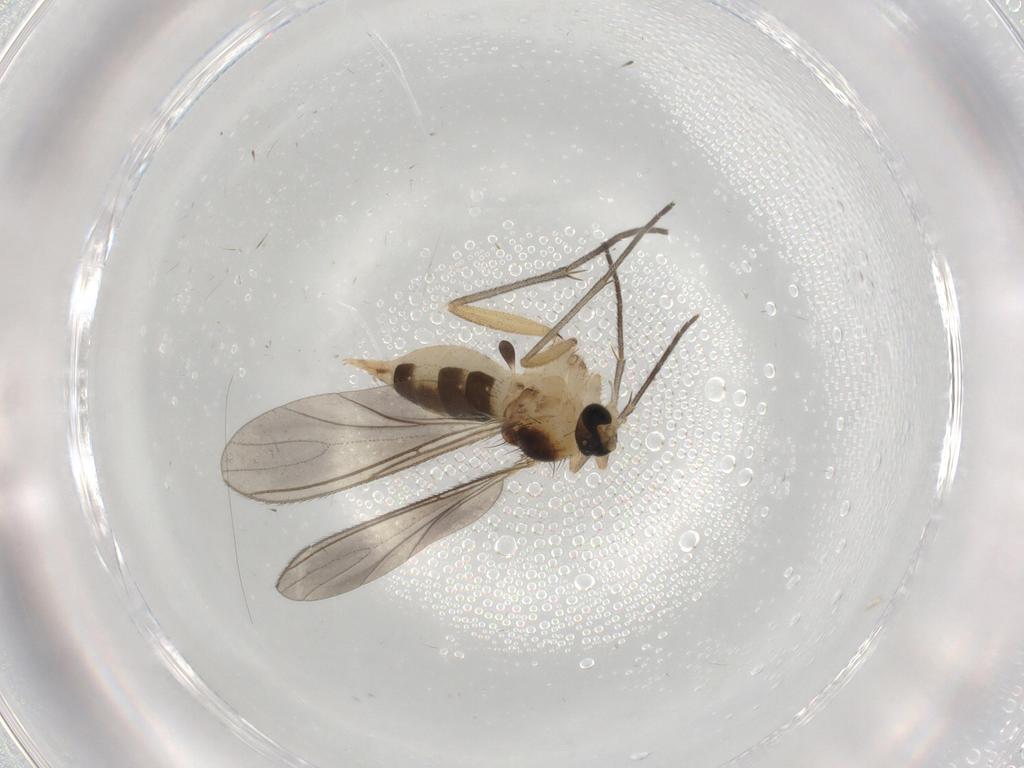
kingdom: Animalia
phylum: Arthropoda
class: Insecta
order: Diptera
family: Sciaridae
